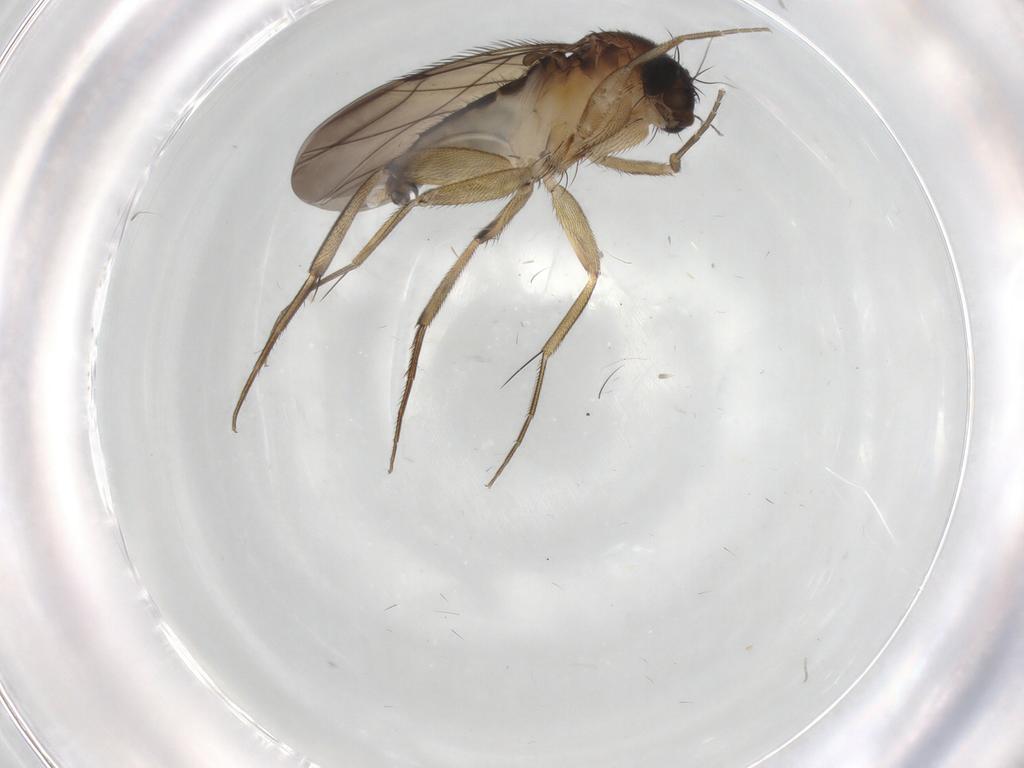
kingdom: Animalia
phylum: Arthropoda
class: Insecta
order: Diptera
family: Phoridae
